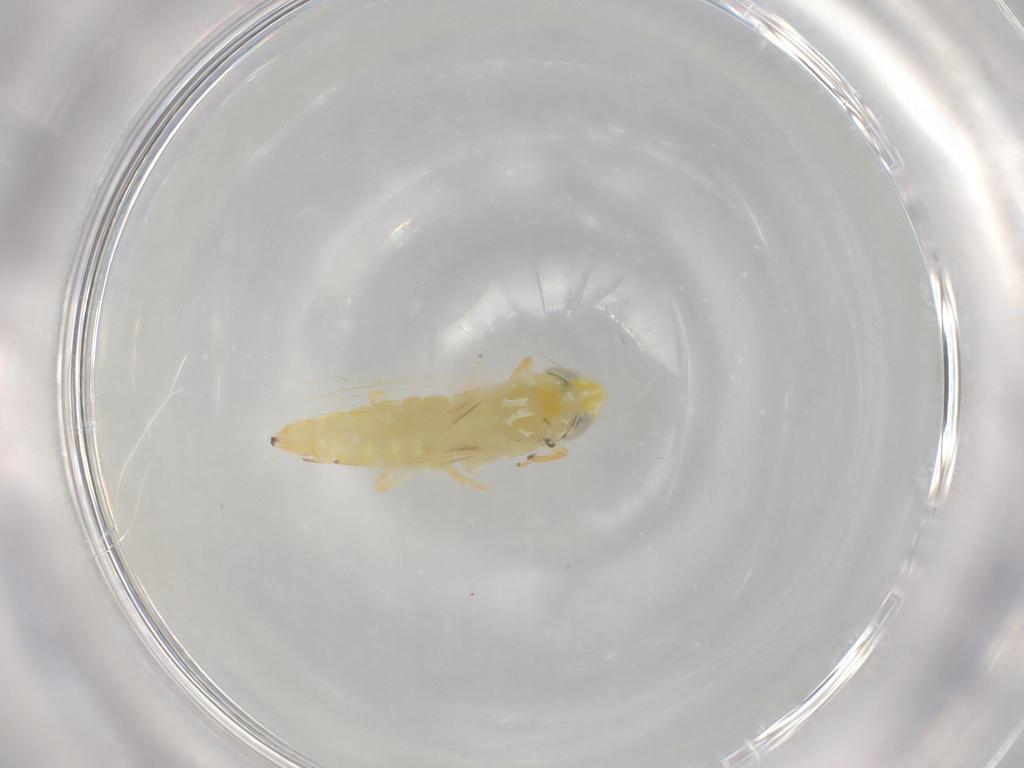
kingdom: Animalia
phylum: Arthropoda
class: Insecta
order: Hemiptera
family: Cicadellidae
